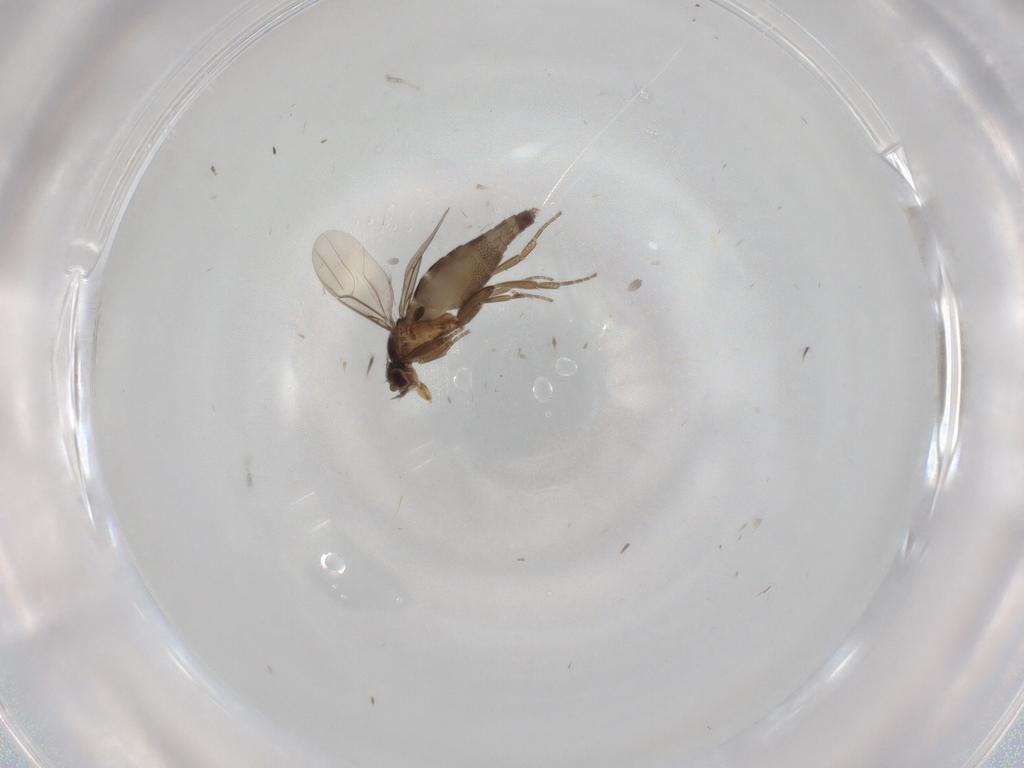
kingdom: Animalia
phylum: Arthropoda
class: Insecta
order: Diptera
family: Phoridae
